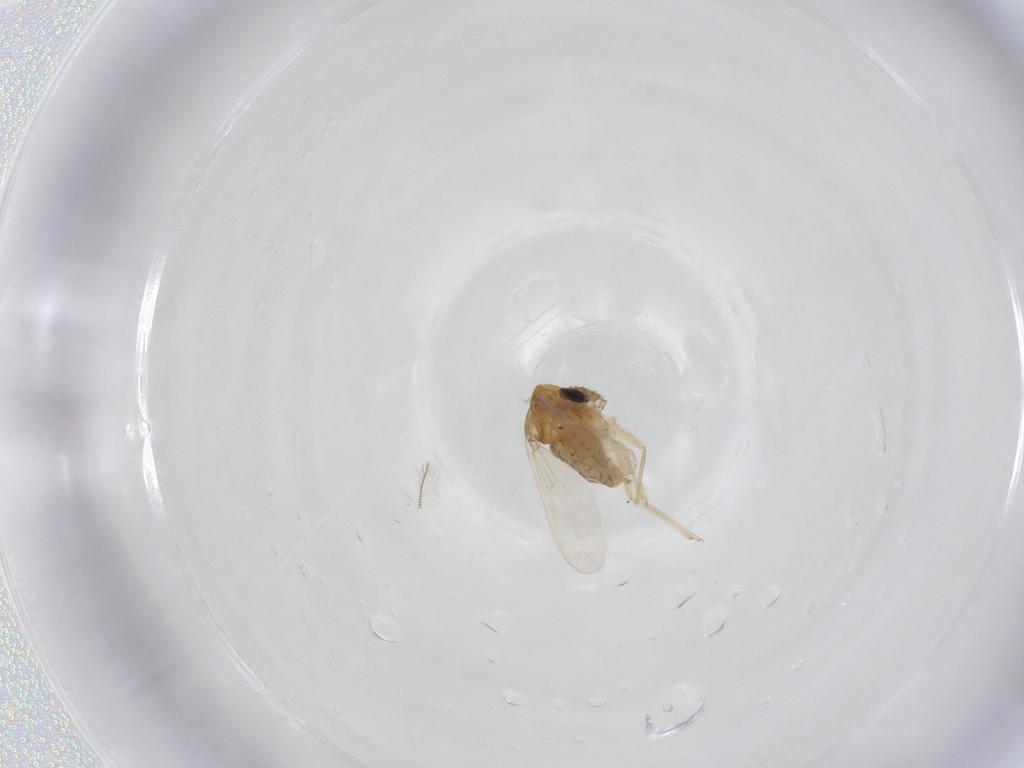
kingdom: Animalia
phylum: Arthropoda
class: Insecta
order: Diptera
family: Chironomidae
